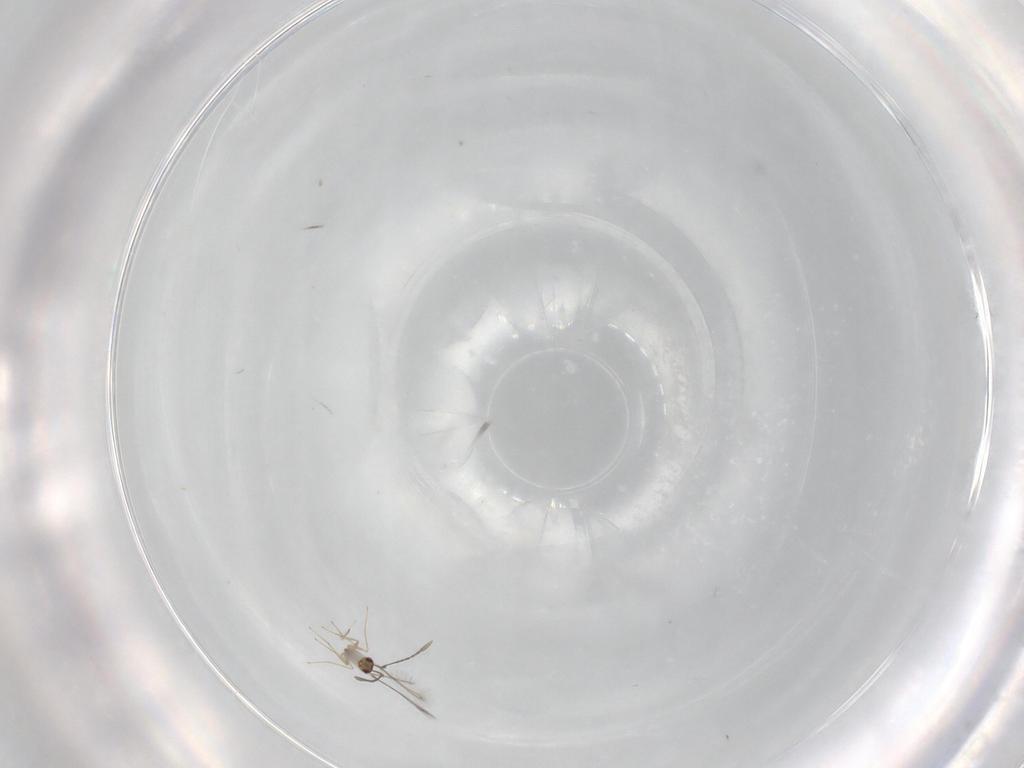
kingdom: Animalia
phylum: Arthropoda
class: Insecta
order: Hymenoptera
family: Mymaridae
